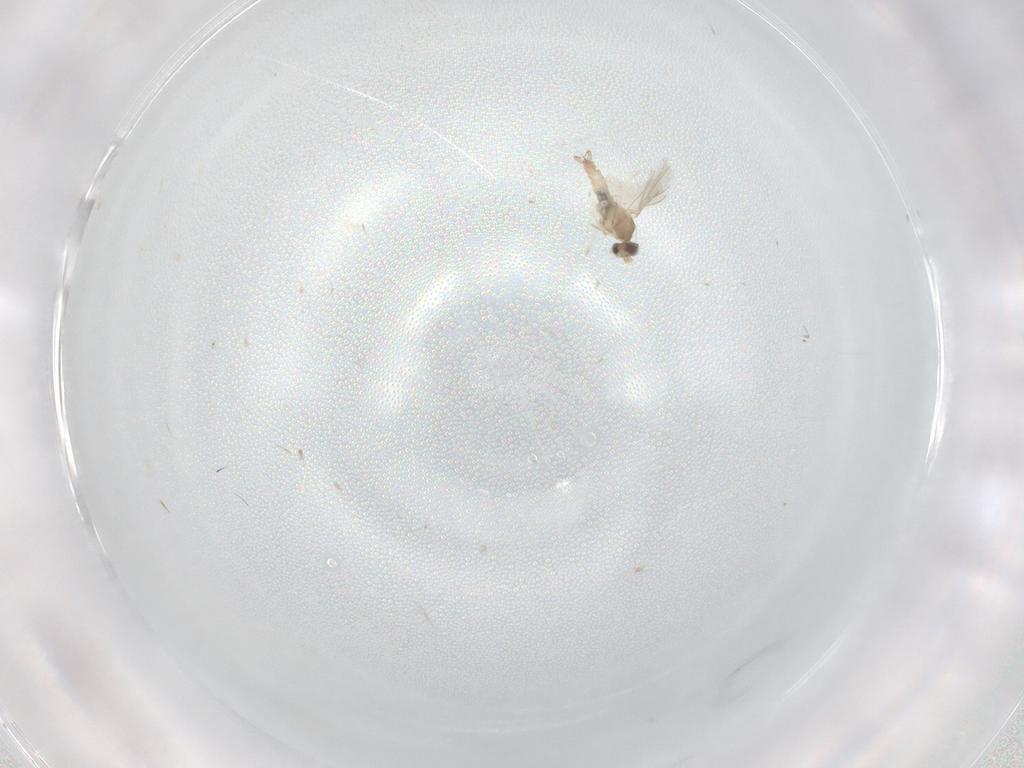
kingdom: Animalia
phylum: Arthropoda
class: Insecta
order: Diptera
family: Cecidomyiidae
